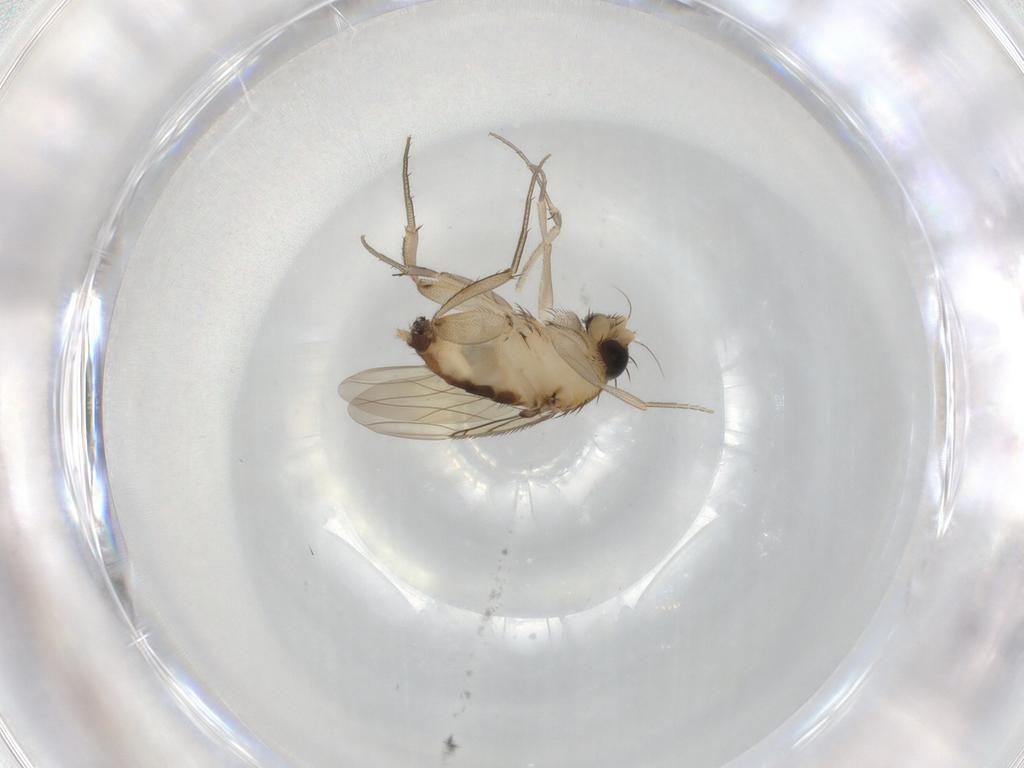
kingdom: Animalia
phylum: Arthropoda
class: Insecta
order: Diptera
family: Phoridae
